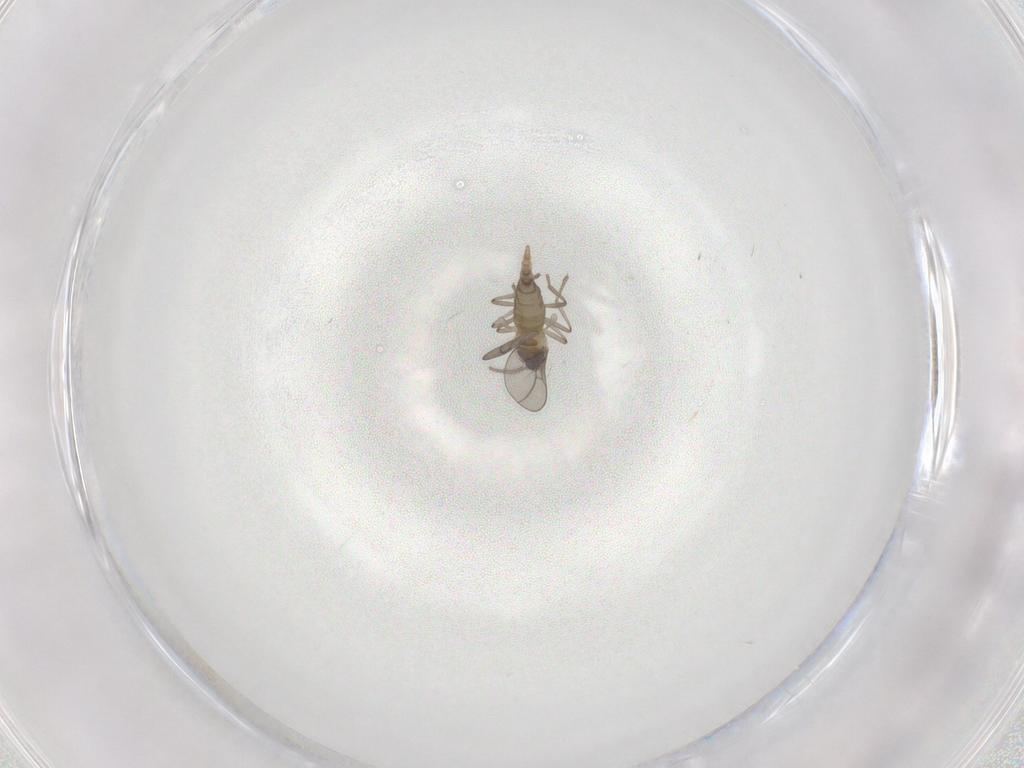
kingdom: Animalia
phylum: Arthropoda
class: Insecta
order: Diptera
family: Cecidomyiidae
